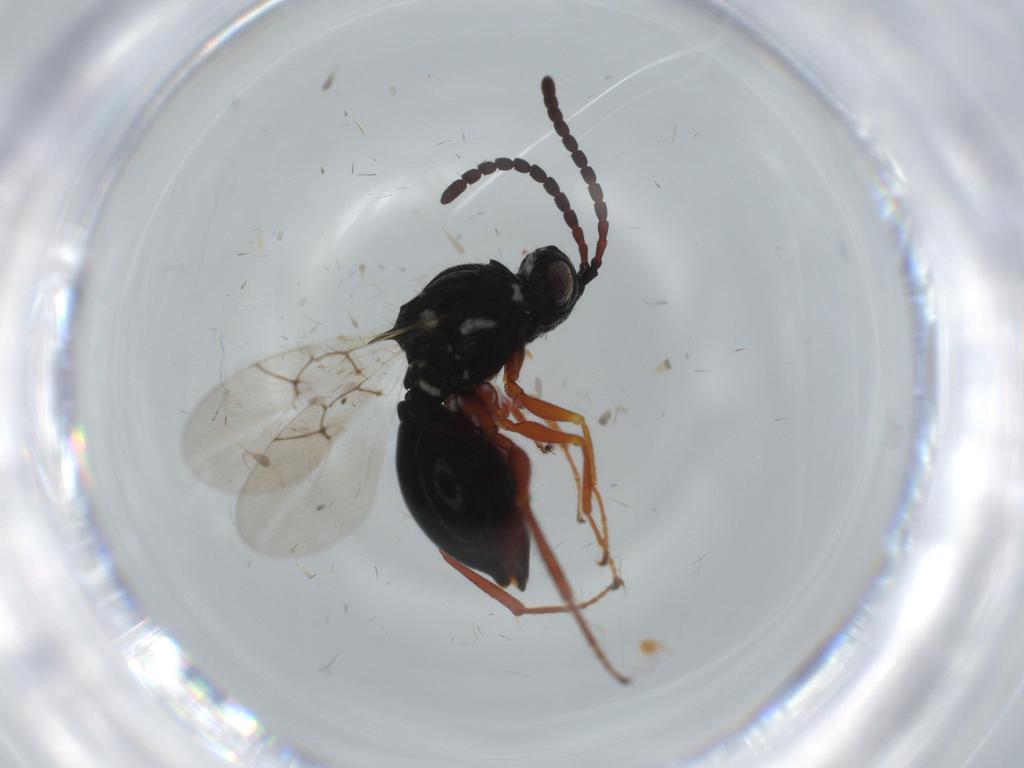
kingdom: Animalia
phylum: Arthropoda
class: Insecta
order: Hymenoptera
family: Formicidae
